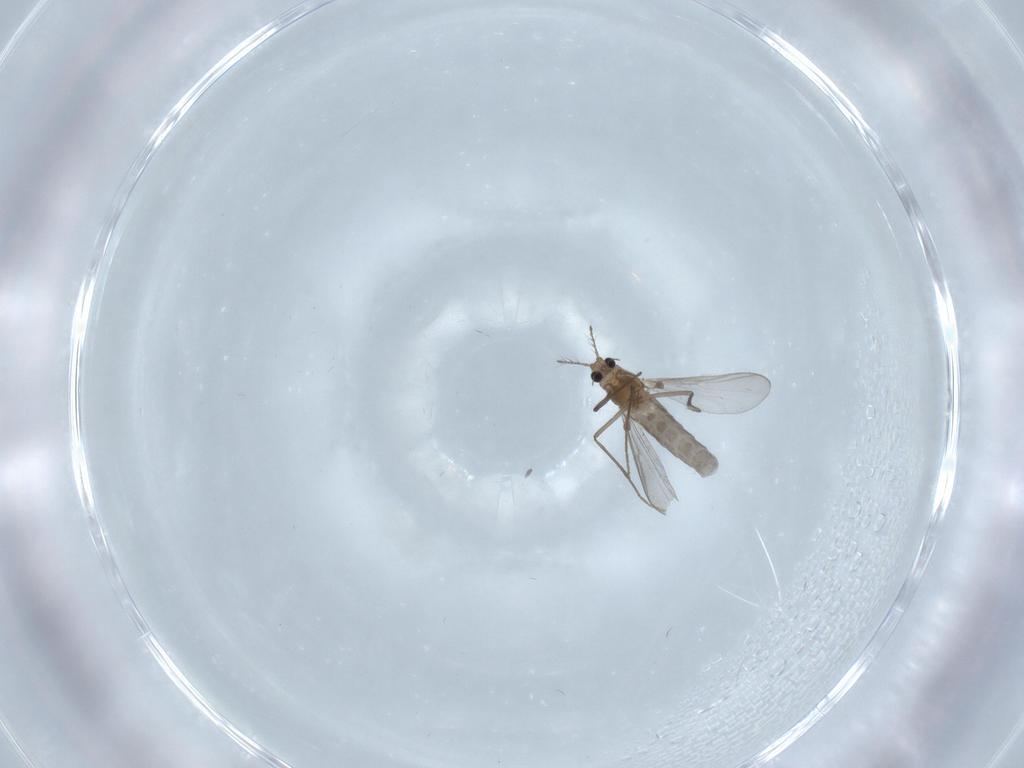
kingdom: Animalia
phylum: Arthropoda
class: Insecta
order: Diptera
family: Chironomidae
